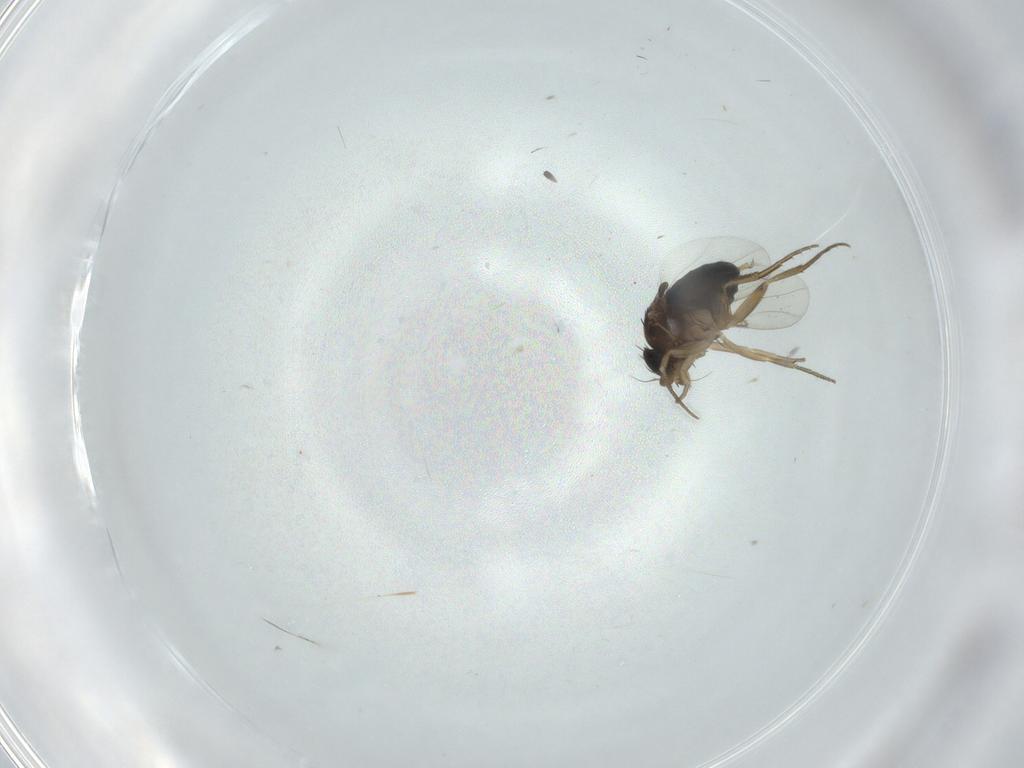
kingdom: Animalia
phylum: Arthropoda
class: Insecta
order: Diptera
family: Phoridae
